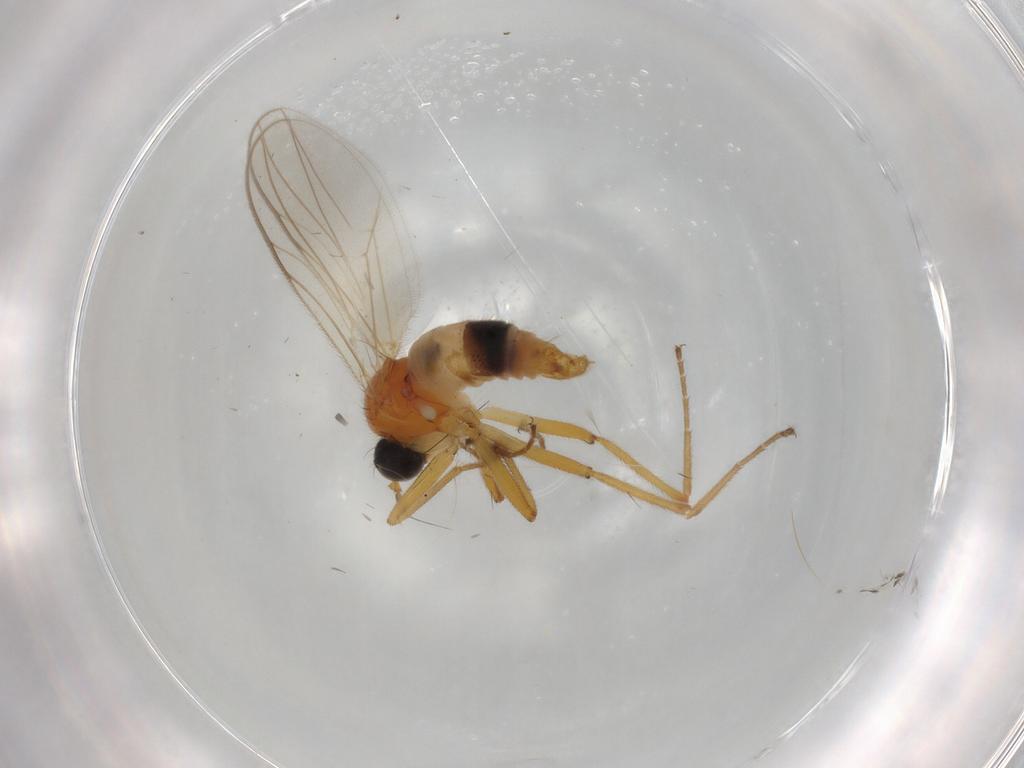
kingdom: Animalia
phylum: Arthropoda
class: Insecta
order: Diptera
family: Hybotidae
